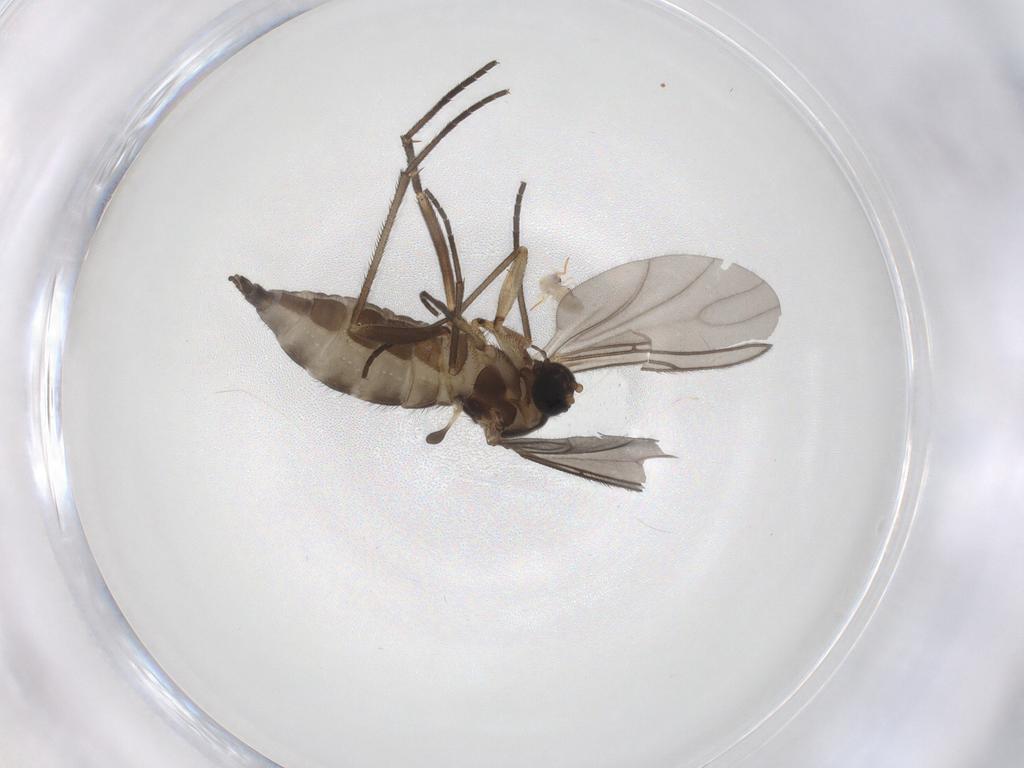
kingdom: Animalia
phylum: Arthropoda
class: Insecta
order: Diptera
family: Sciaridae
